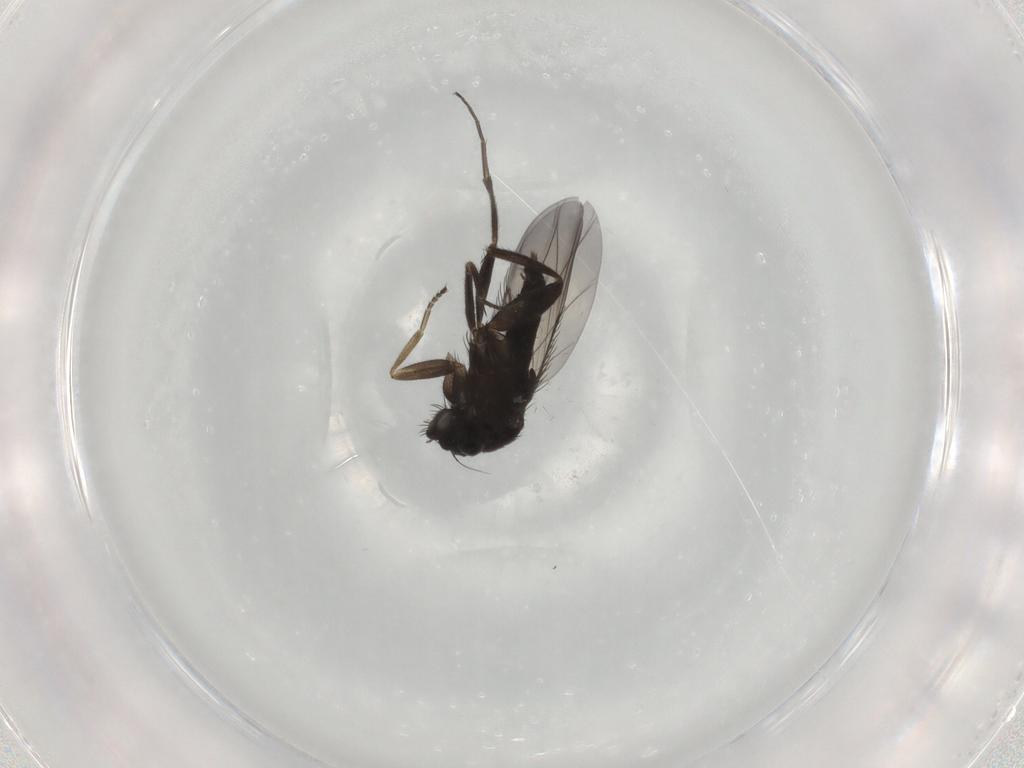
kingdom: Animalia
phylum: Arthropoda
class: Insecta
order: Diptera
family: Phoridae
